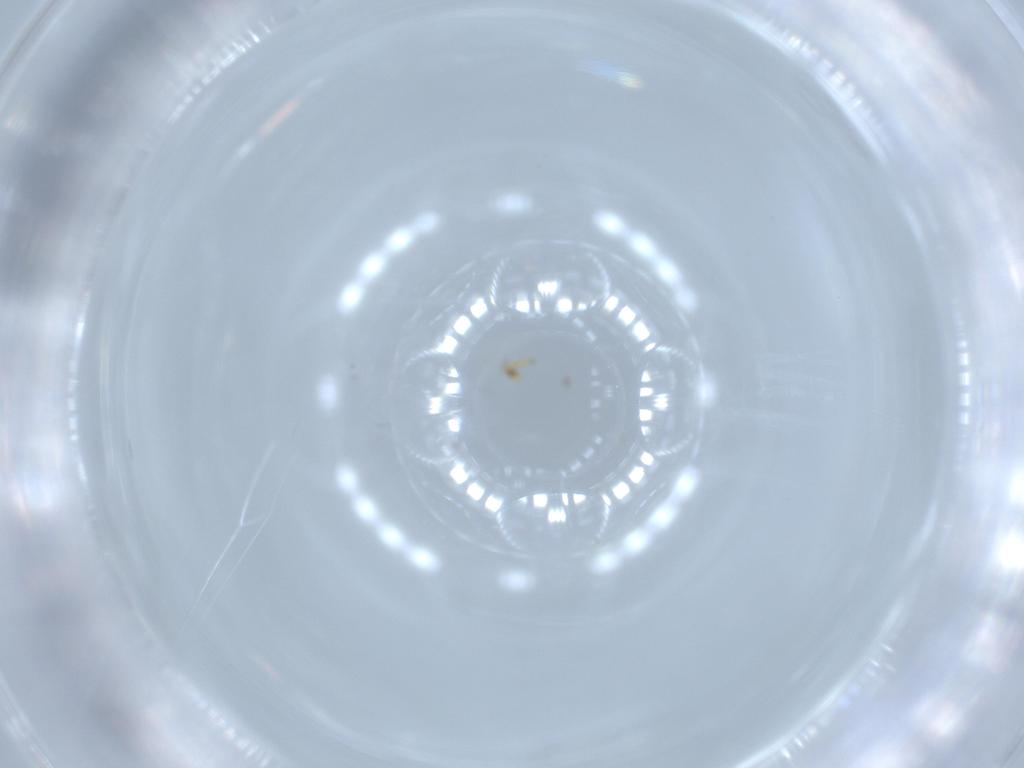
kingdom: Animalia
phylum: Arthropoda
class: Insecta
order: Thysanoptera
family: Phlaeothripidae
